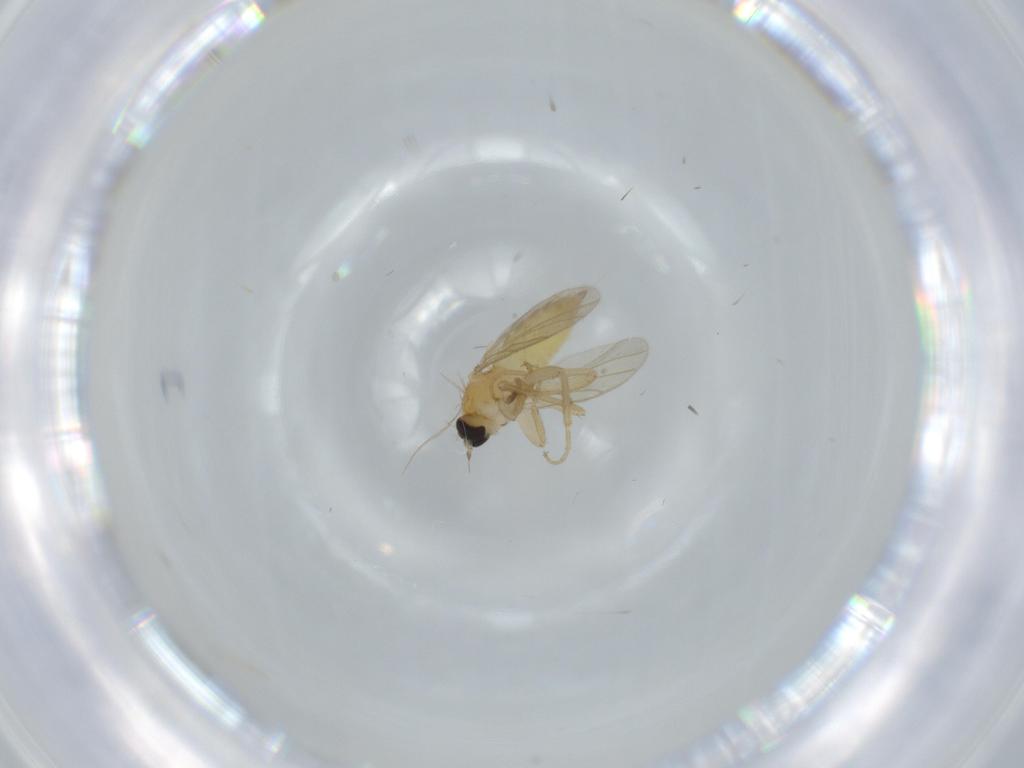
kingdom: Animalia
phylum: Arthropoda
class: Insecta
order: Diptera
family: Hybotidae
